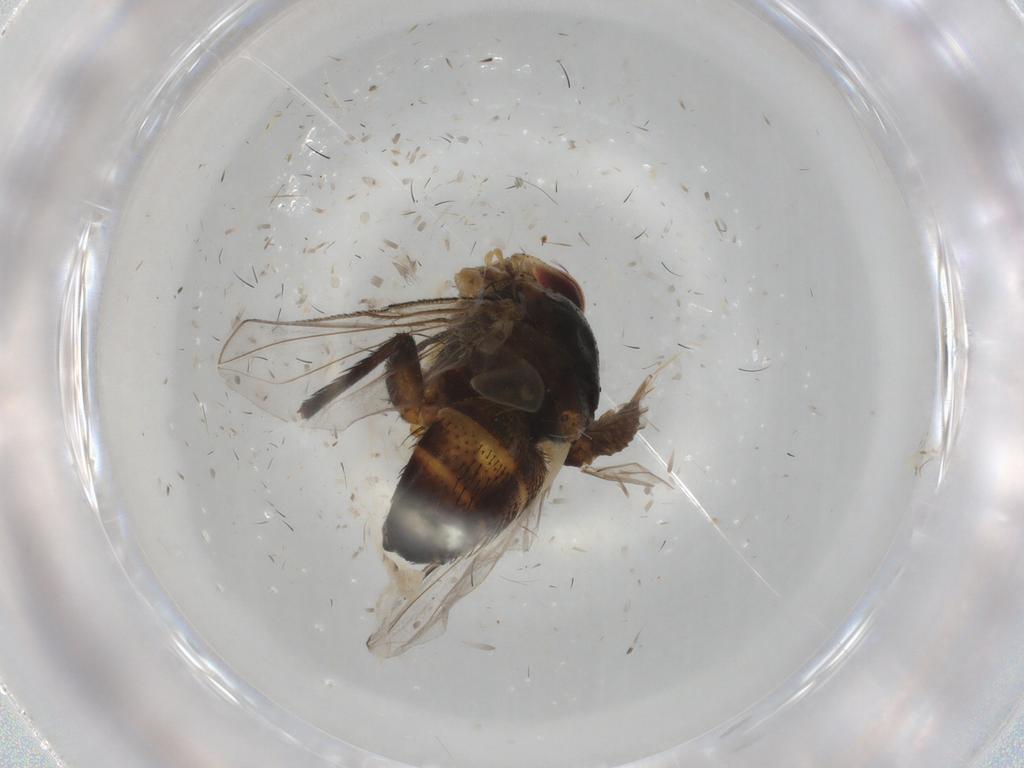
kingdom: Animalia
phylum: Arthropoda
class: Insecta
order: Diptera
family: Cecidomyiidae
